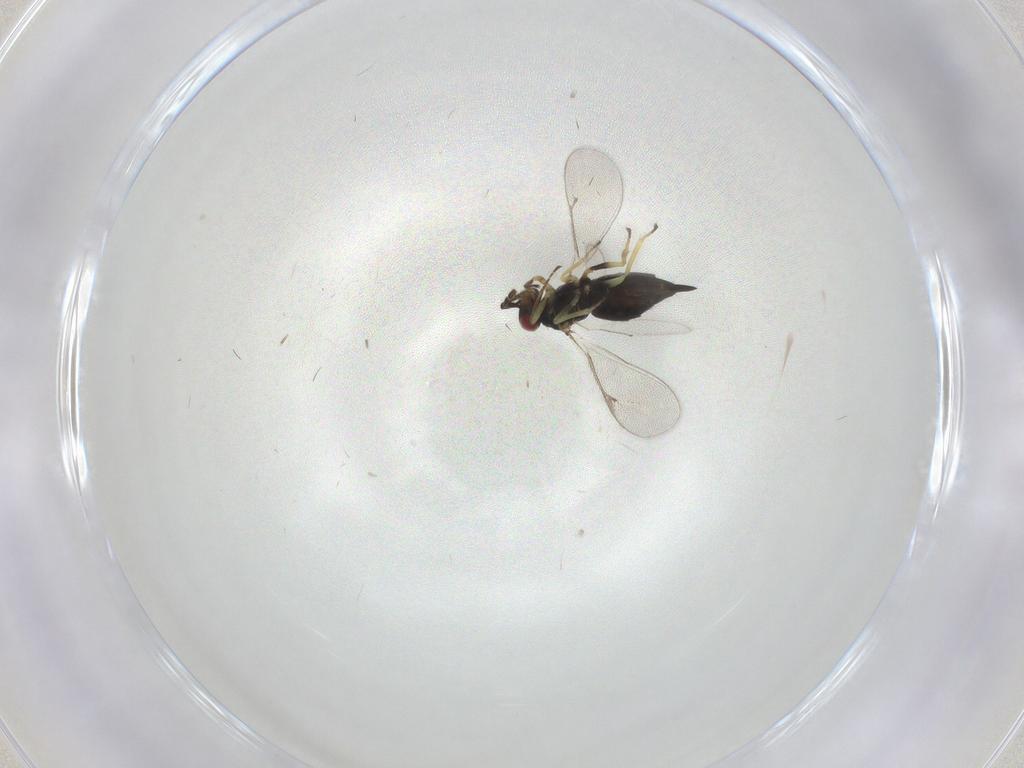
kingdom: Animalia
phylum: Arthropoda
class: Insecta
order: Hymenoptera
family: Eulophidae
